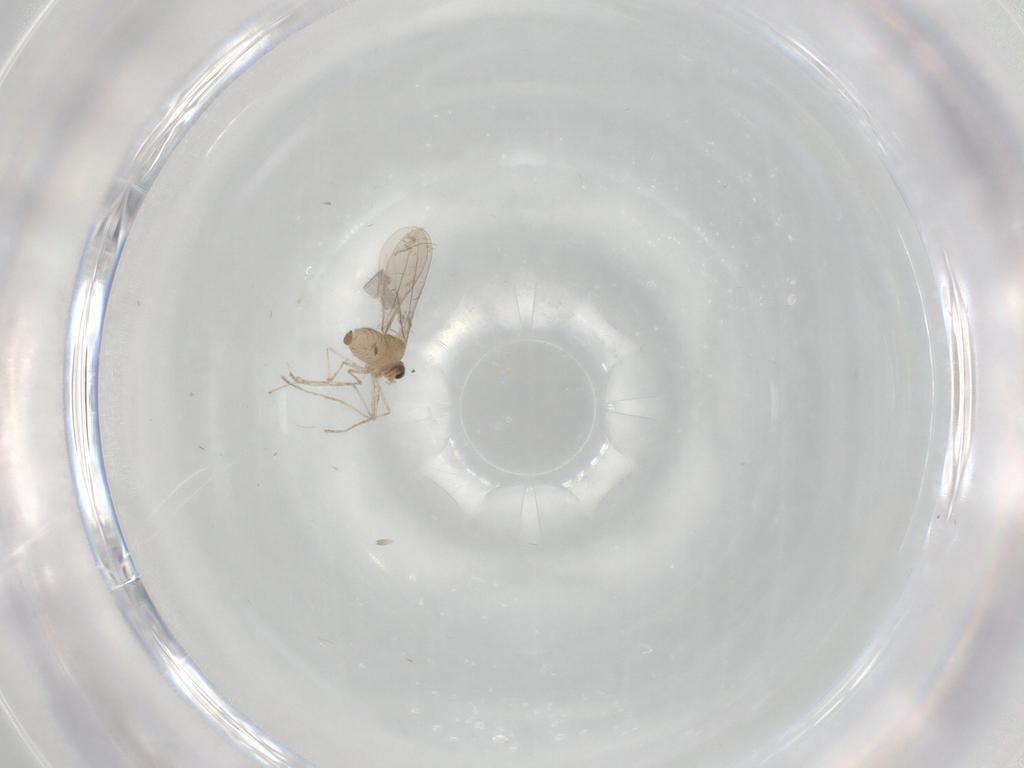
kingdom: Animalia
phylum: Arthropoda
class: Insecta
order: Diptera
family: Cecidomyiidae
